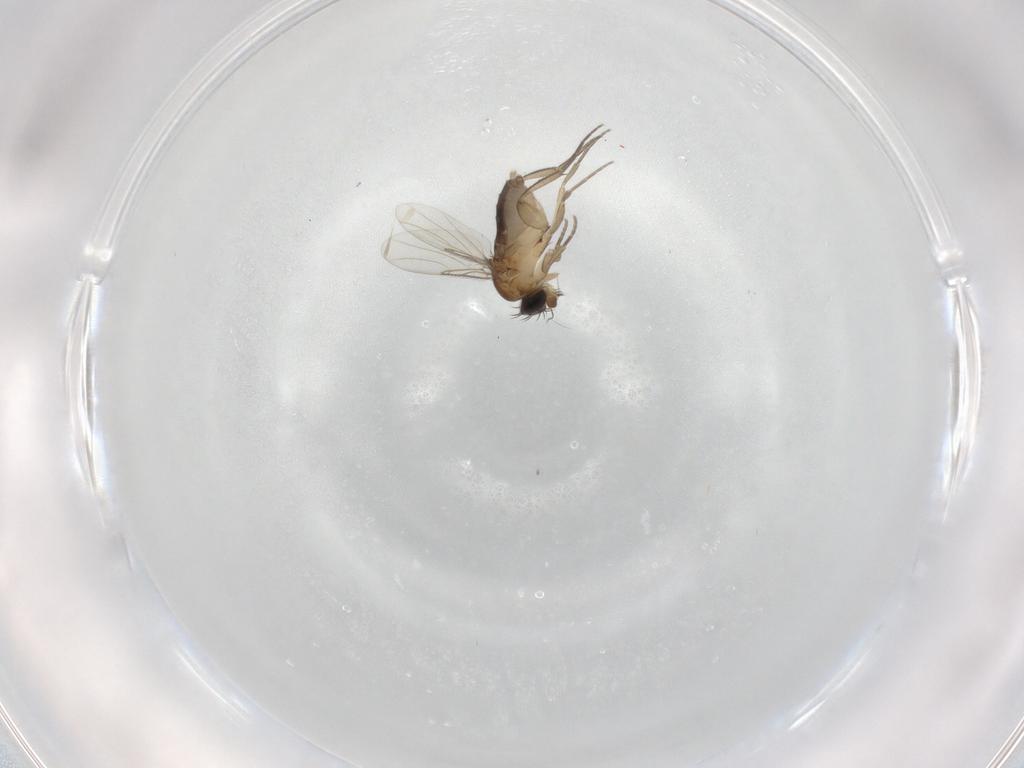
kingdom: Animalia
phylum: Arthropoda
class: Insecta
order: Diptera
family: Phoridae
